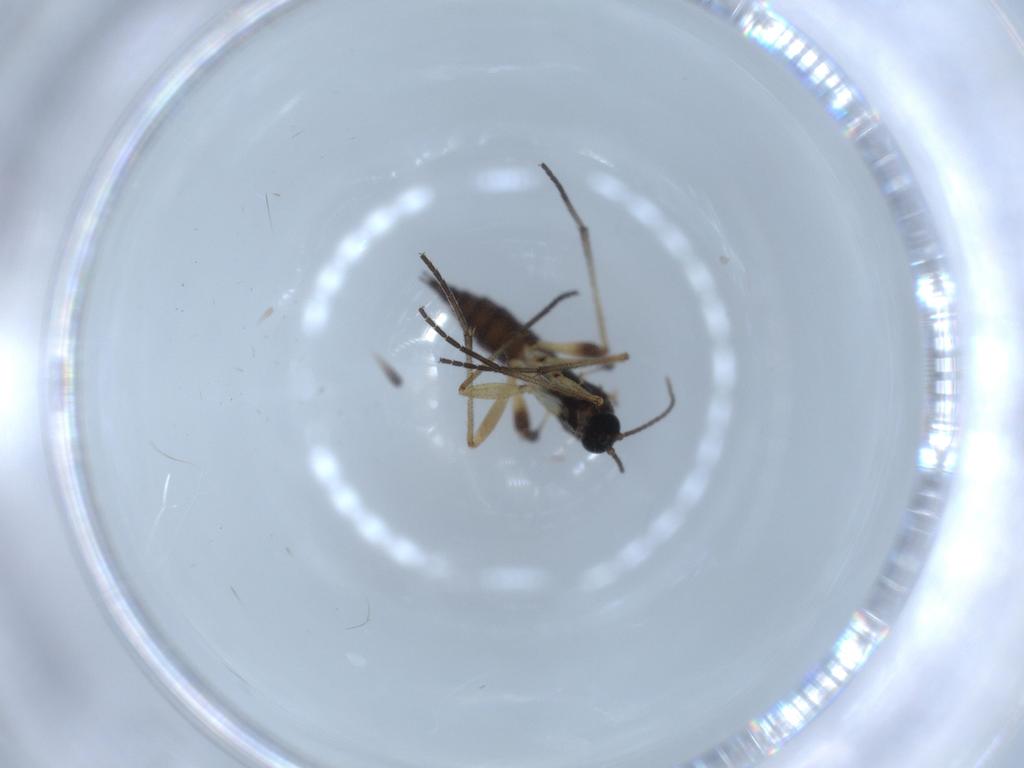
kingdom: Animalia
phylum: Arthropoda
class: Insecta
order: Diptera
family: Sciaridae
